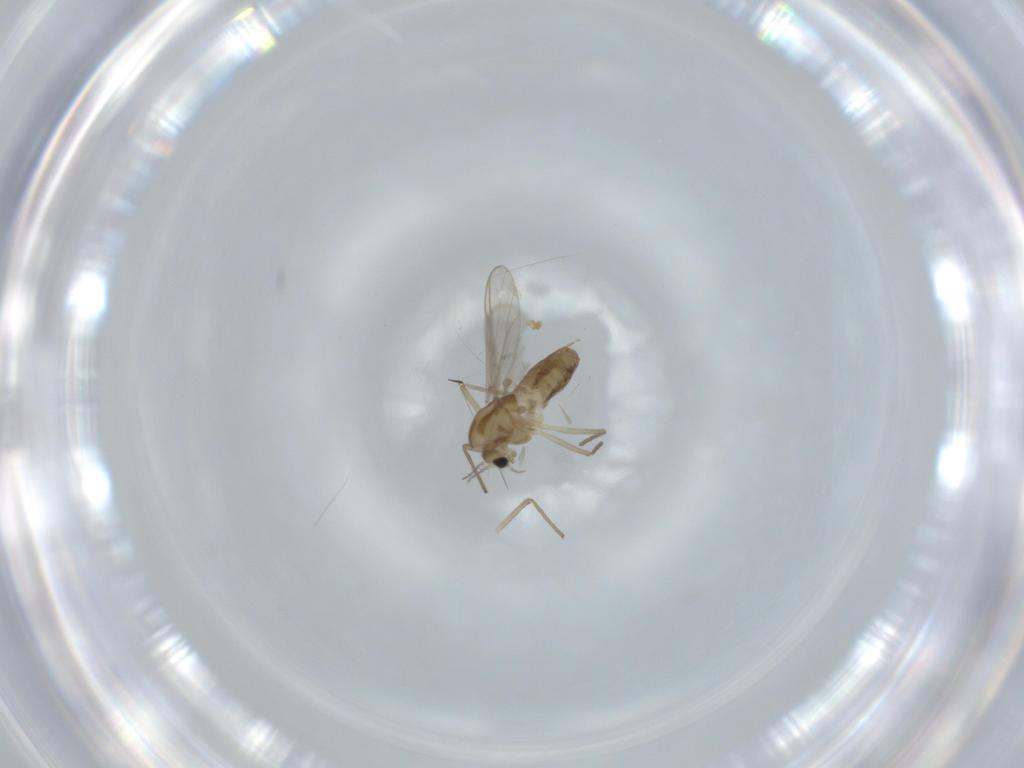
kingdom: Animalia
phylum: Arthropoda
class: Insecta
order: Diptera
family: Chironomidae
